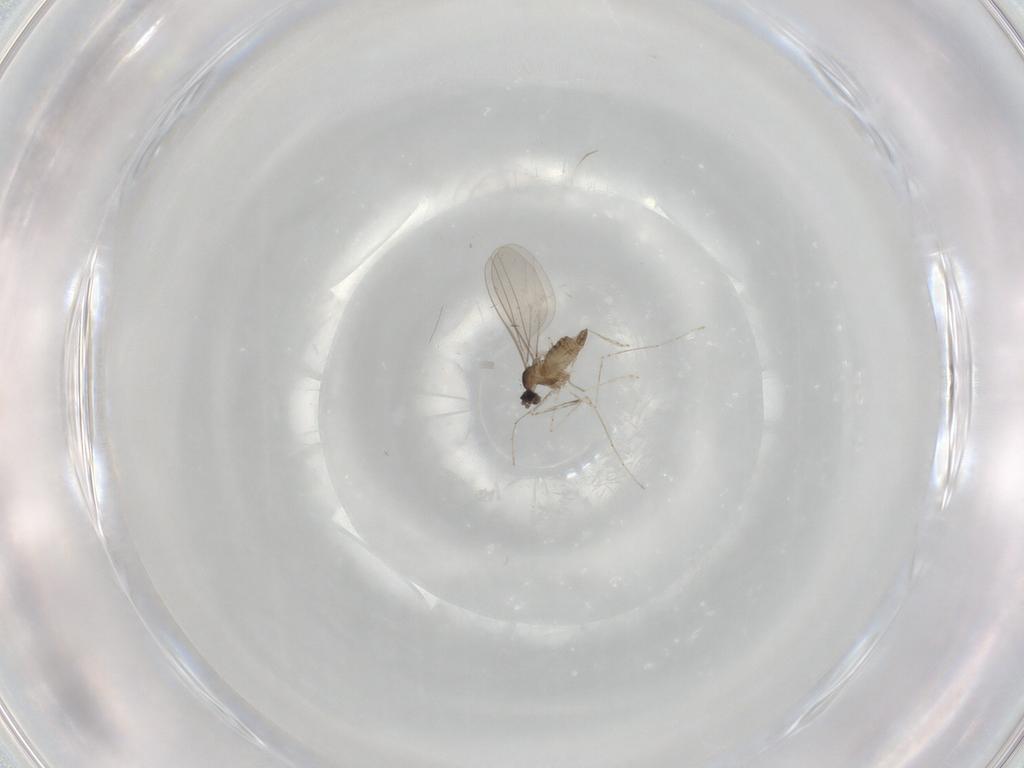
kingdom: Animalia
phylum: Arthropoda
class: Insecta
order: Diptera
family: Cecidomyiidae
